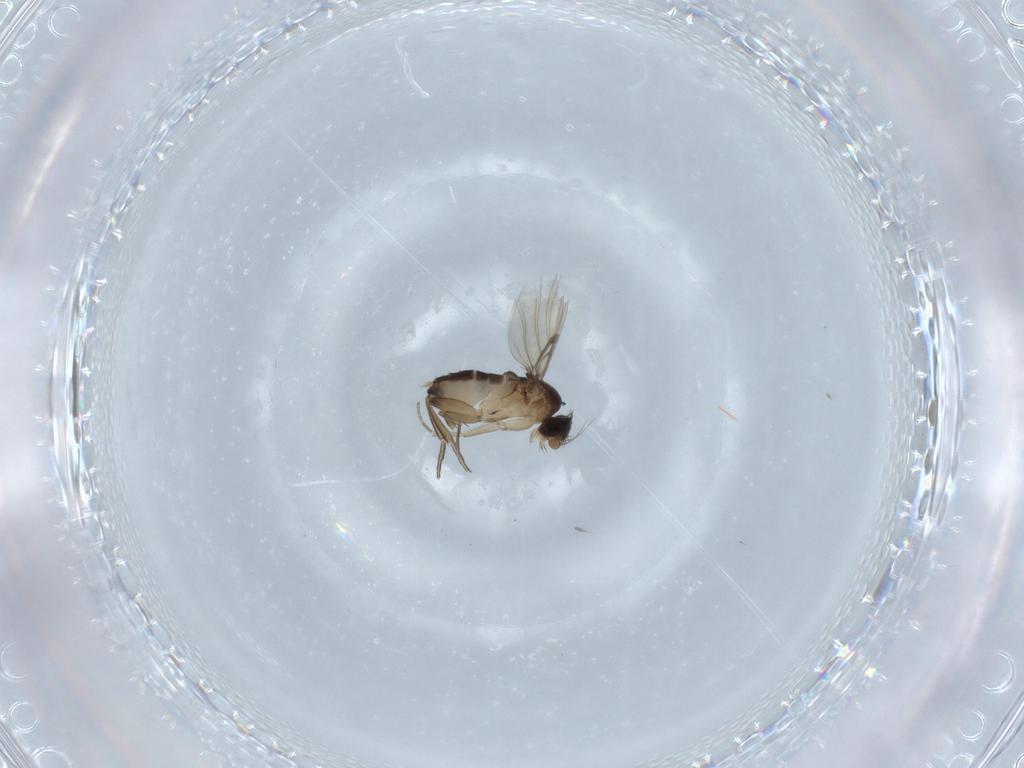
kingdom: Animalia
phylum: Arthropoda
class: Insecta
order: Diptera
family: Phoridae
